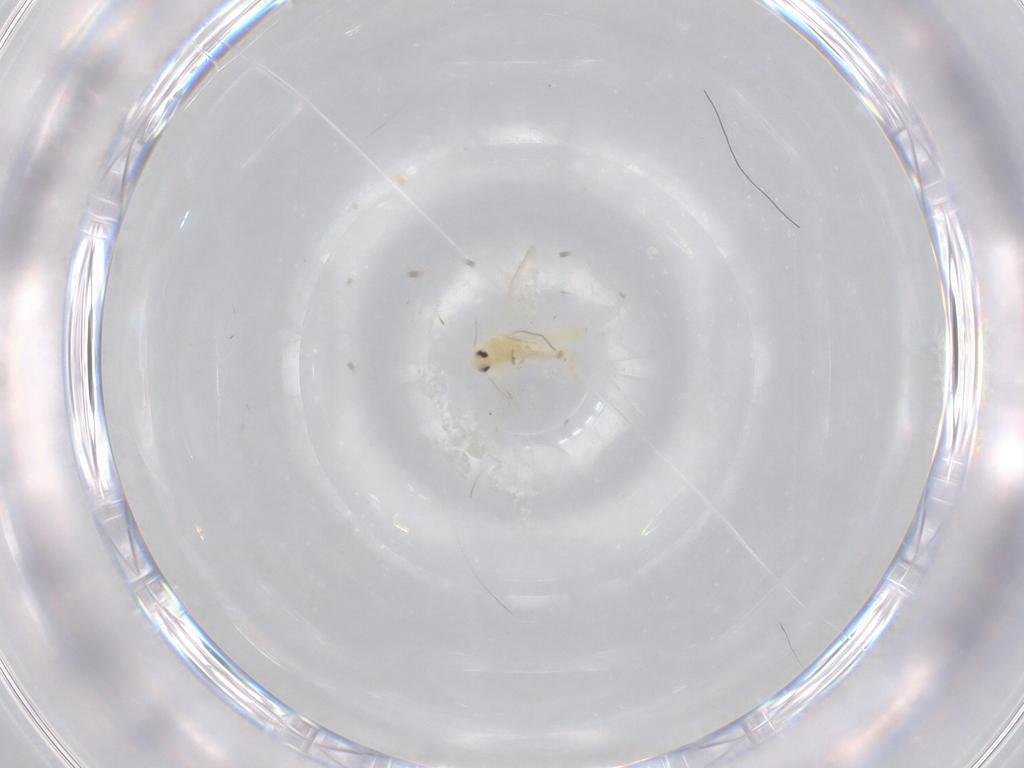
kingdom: Animalia
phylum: Arthropoda
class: Insecta
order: Hemiptera
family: Aleyrodidae
